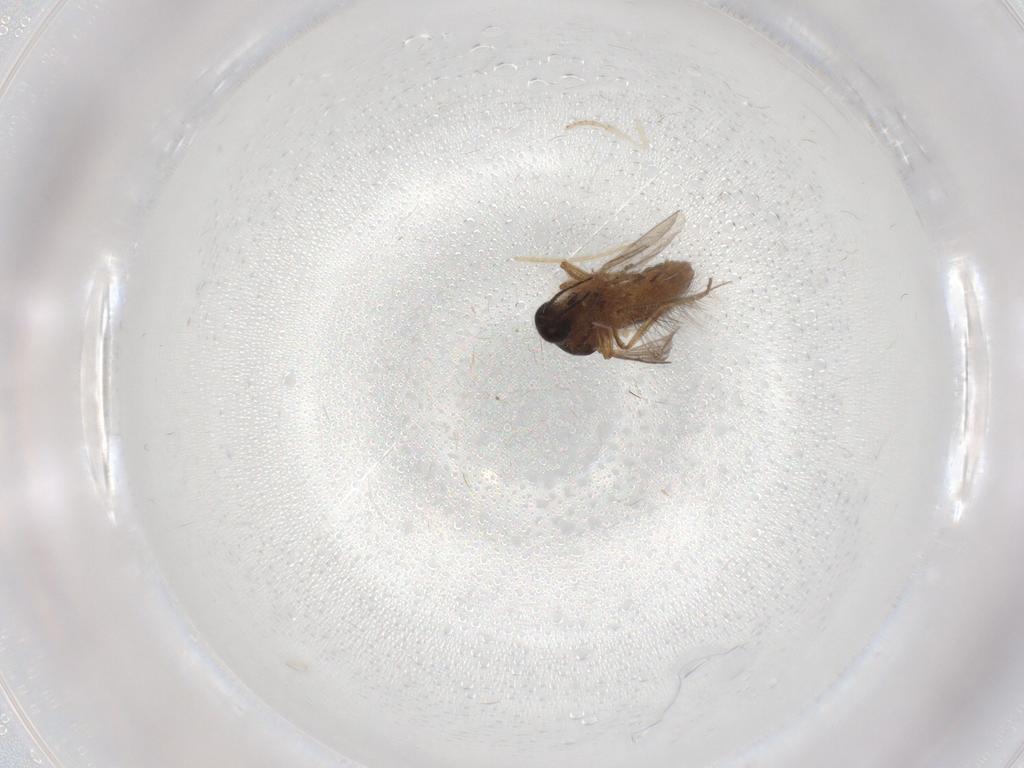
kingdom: Animalia
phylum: Arthropoda
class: Insecta
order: Diptera
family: Ceratopogonidae
